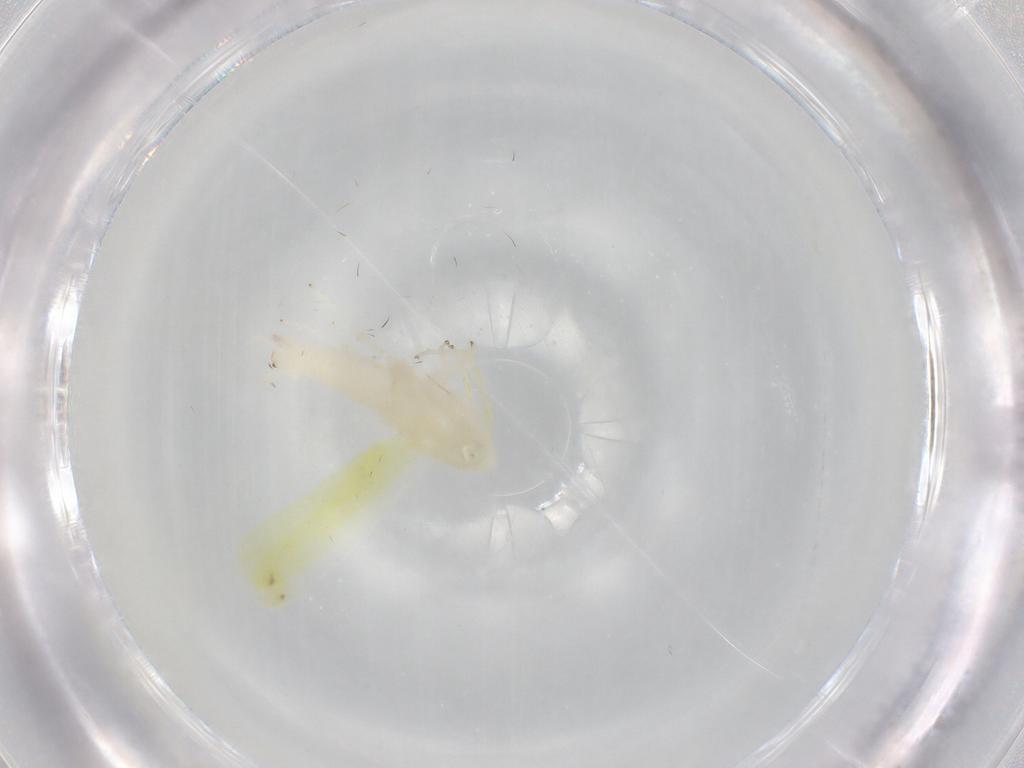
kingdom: Animalia
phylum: Arthropoda
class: Insecta
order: Hemiptera
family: Cicadellidae
